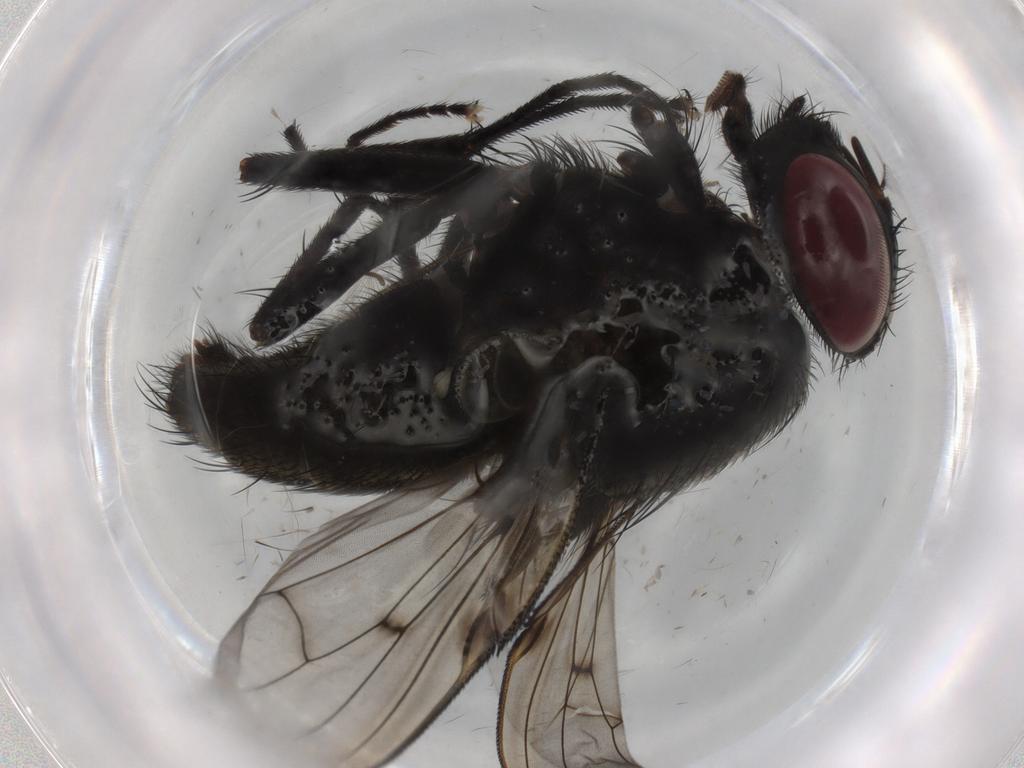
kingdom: Animalia
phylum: Arthropoda
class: Insecta
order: Diptera
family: Muscidae
